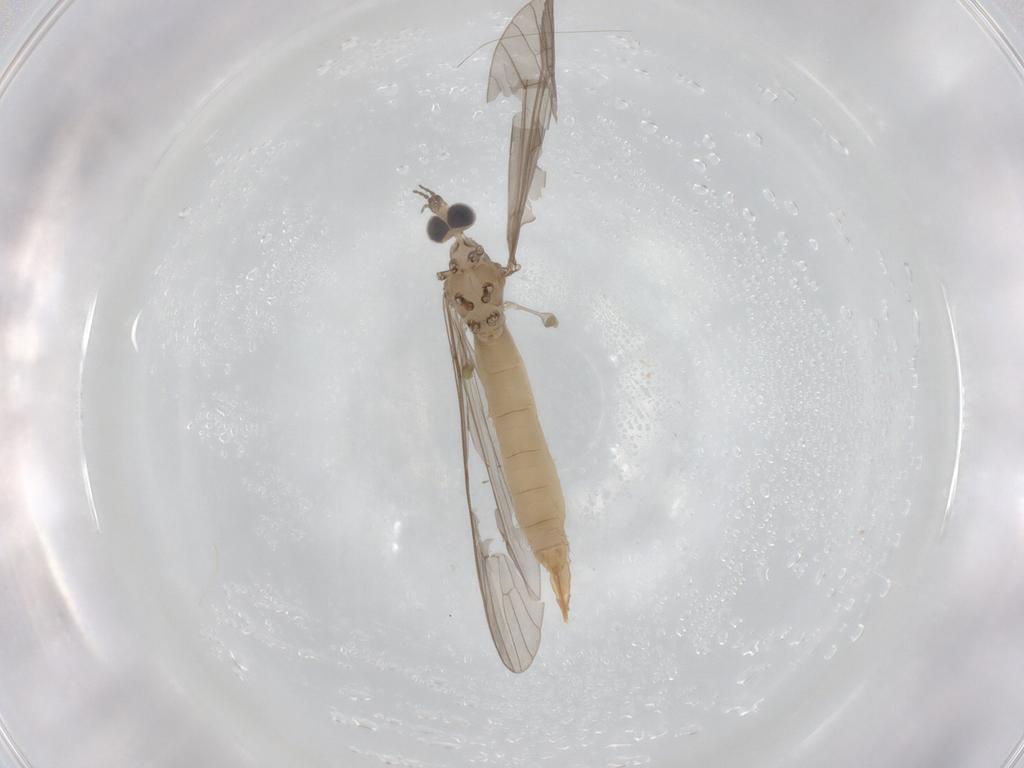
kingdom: Animalia
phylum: Arthropoda
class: Insecta
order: Diptera
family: Limoniidae
